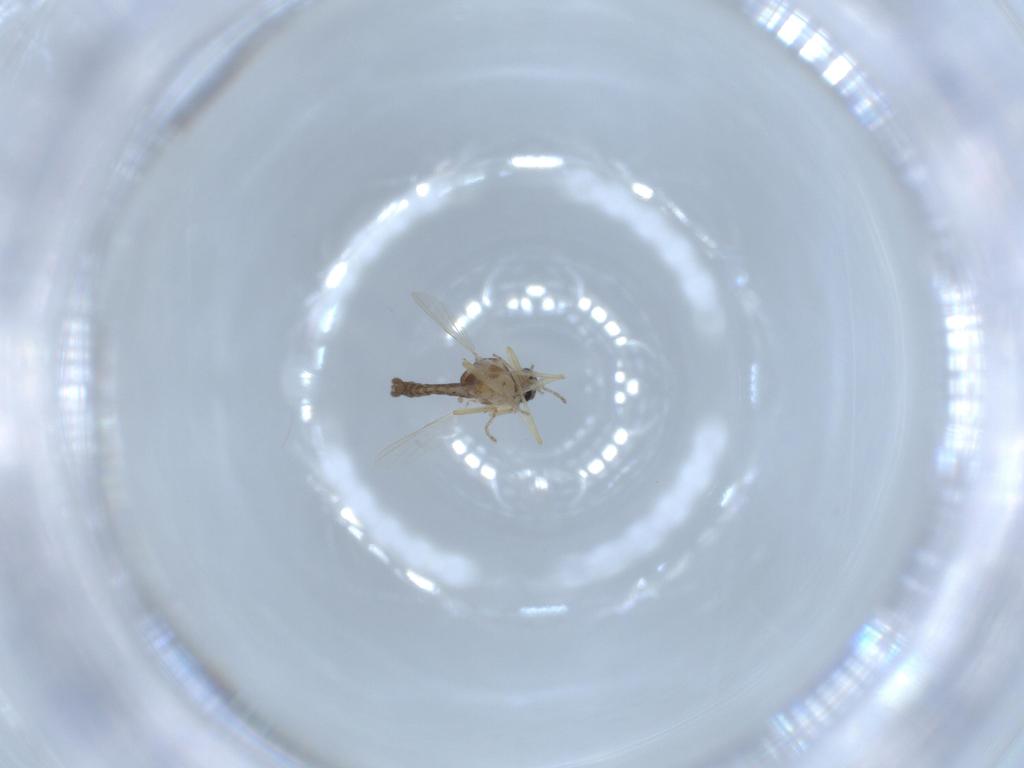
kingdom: Animalia
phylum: Arthropoda
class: Insecta
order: Diptera
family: Ceratopogonidae
